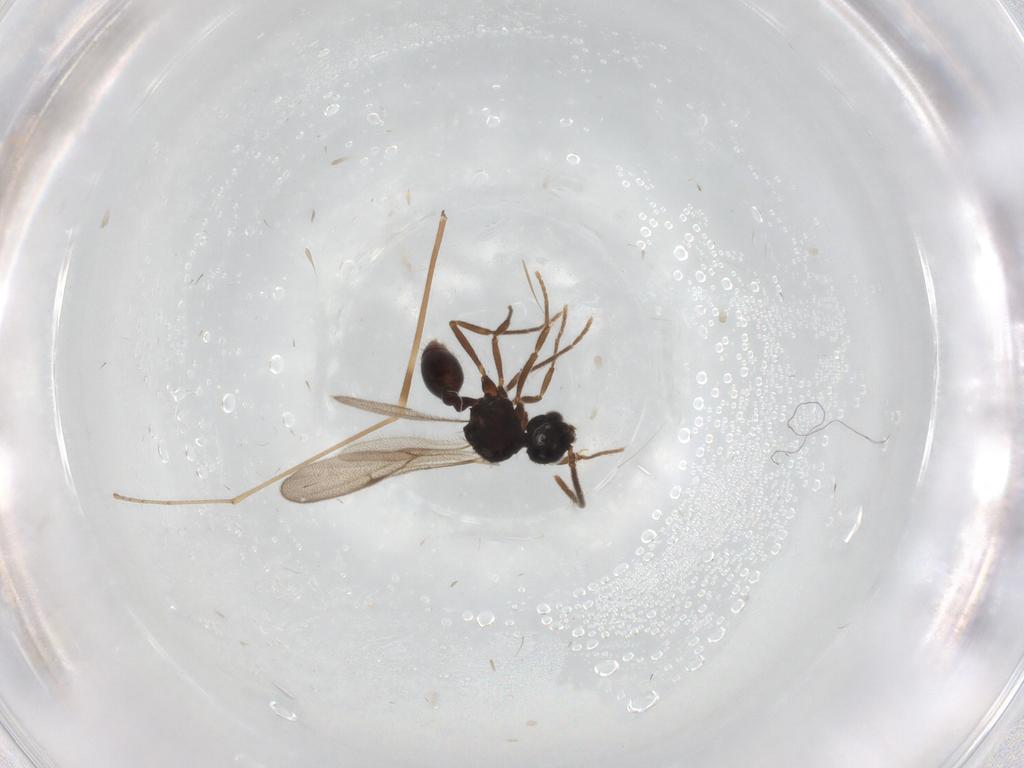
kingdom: Animalia
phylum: Arthropoda
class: Insecta
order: Hymenoptera
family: Formicidae
